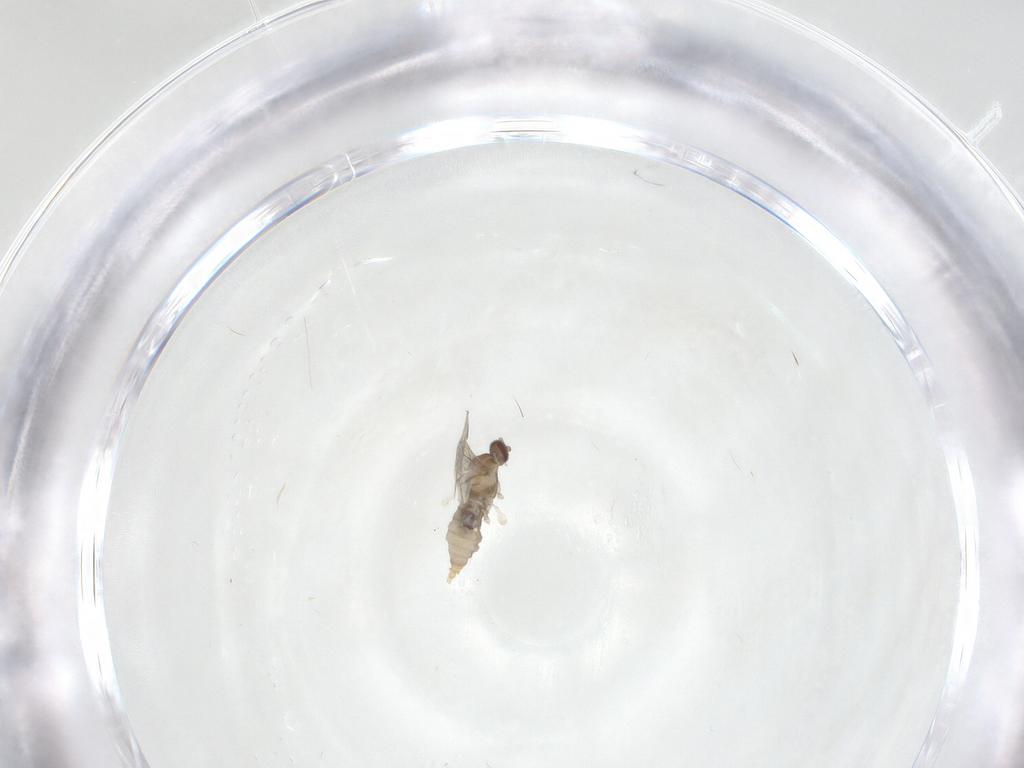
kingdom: Animalia
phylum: Arthropoda
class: Insecta
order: Diptera
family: Cecidomyiidae
